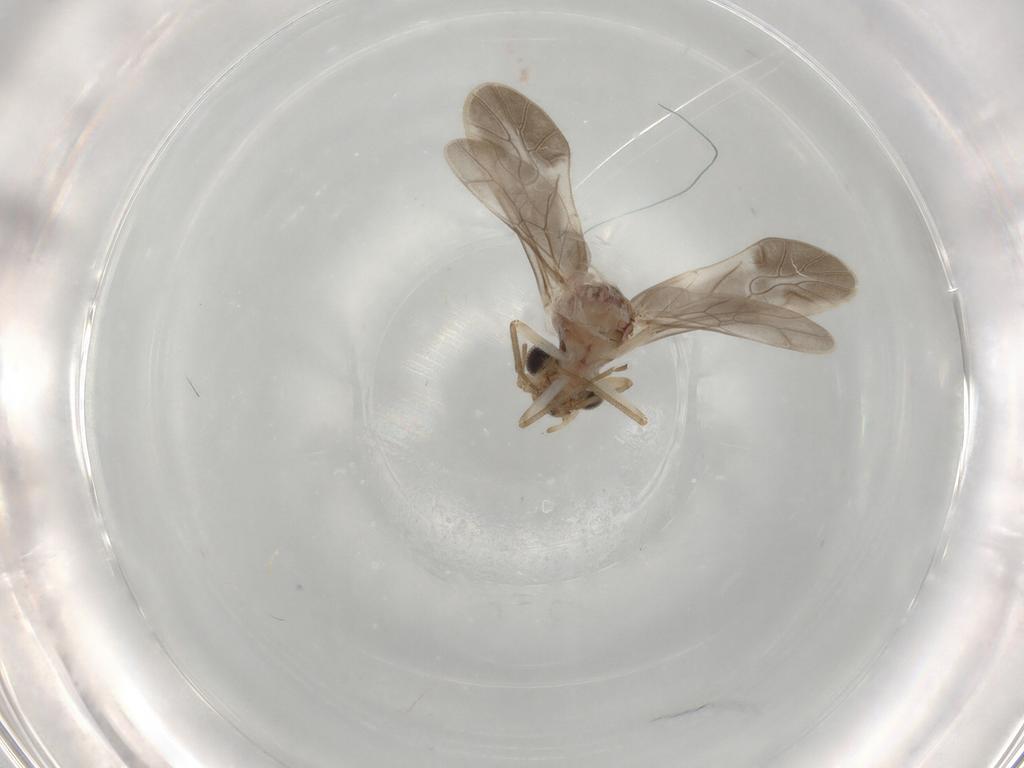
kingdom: Animalia
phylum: Arthropoda
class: Insecta
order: Psocodea
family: Caeciliusidae
